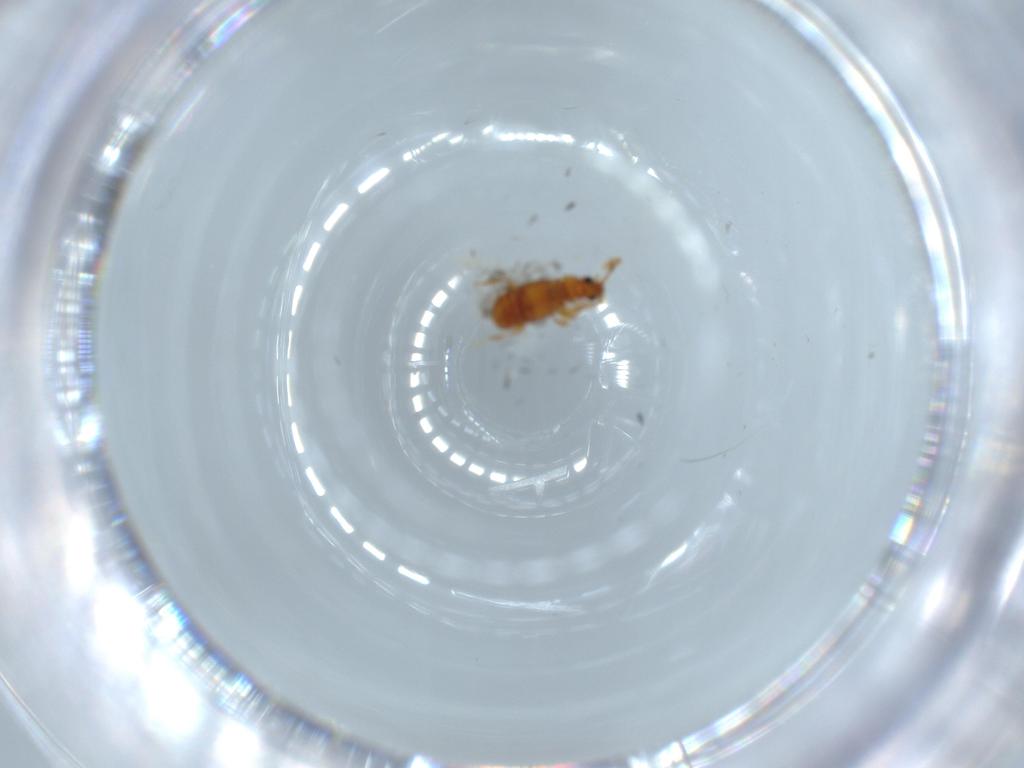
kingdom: Animalia
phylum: Arthropoda
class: Insecta
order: Coleoptera
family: Staphylinidae
